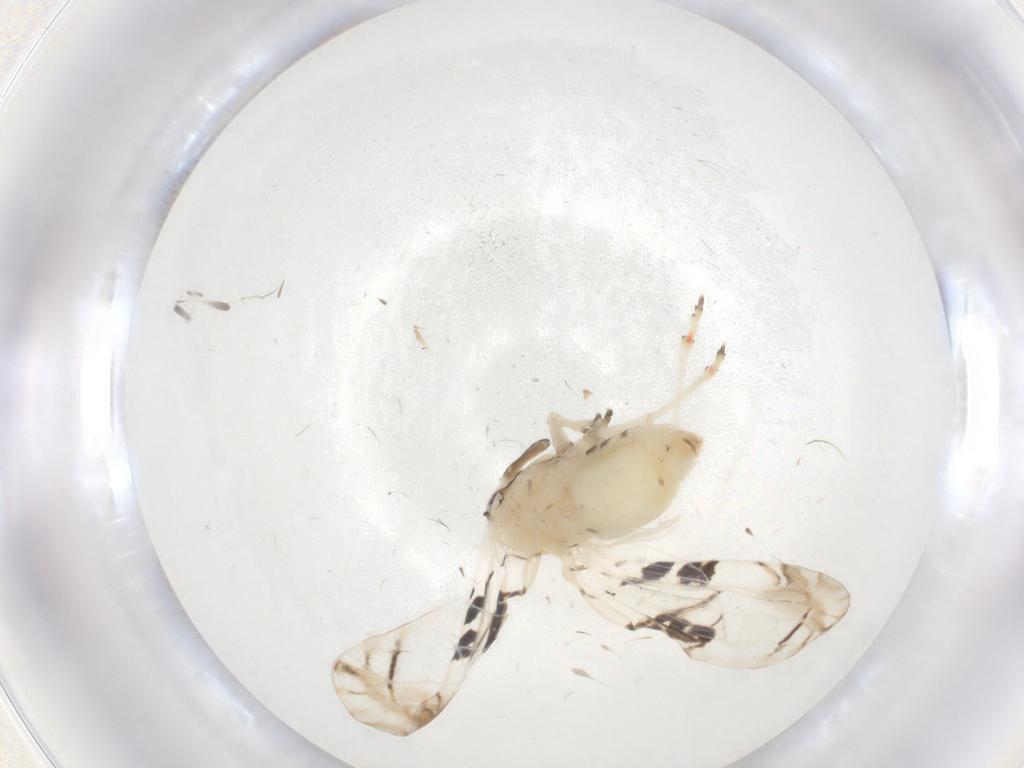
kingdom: Animalia
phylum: Arthropoda
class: Insecta
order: Hemiptera
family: Derbidae
